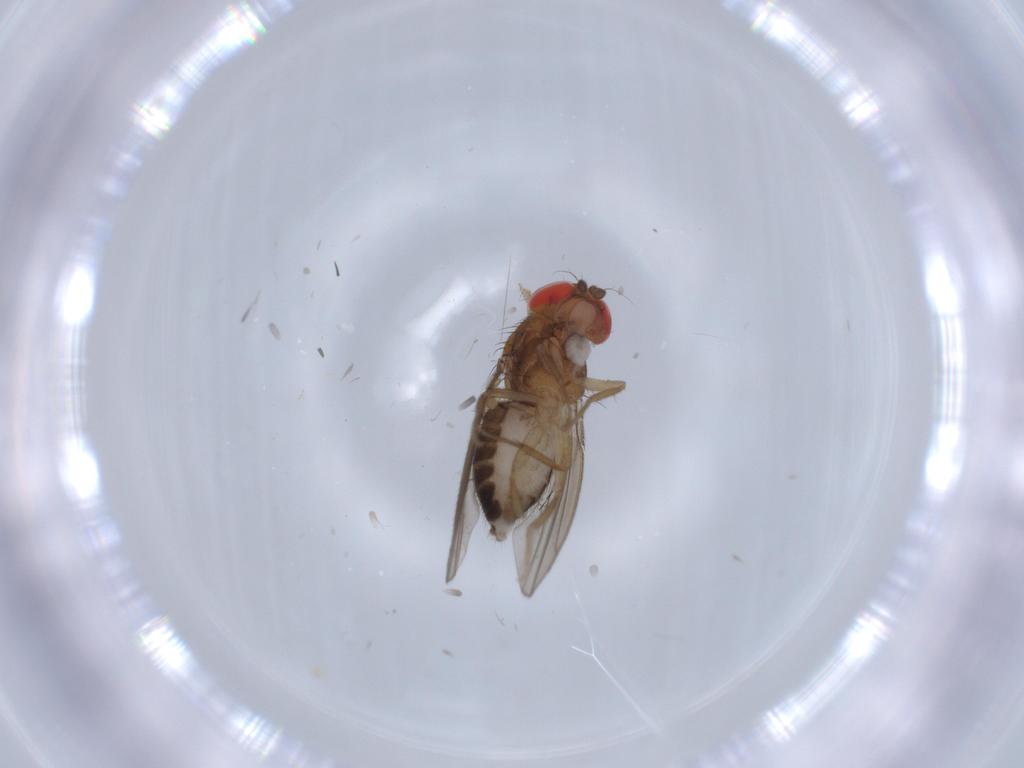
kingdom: Animalia
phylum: Arthropoda
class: Insecta
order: Diptera
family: Drosophilidae
